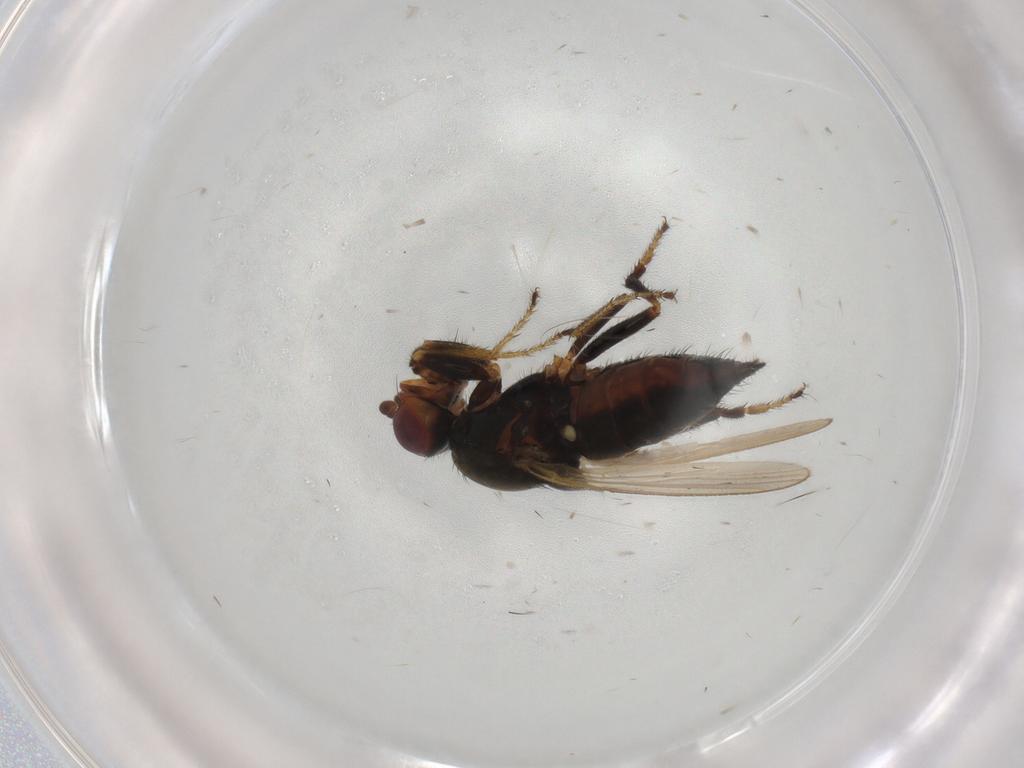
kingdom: Animalia
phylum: Arthropoda
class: Insecta
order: Diptera
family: Sphaeroceridae
